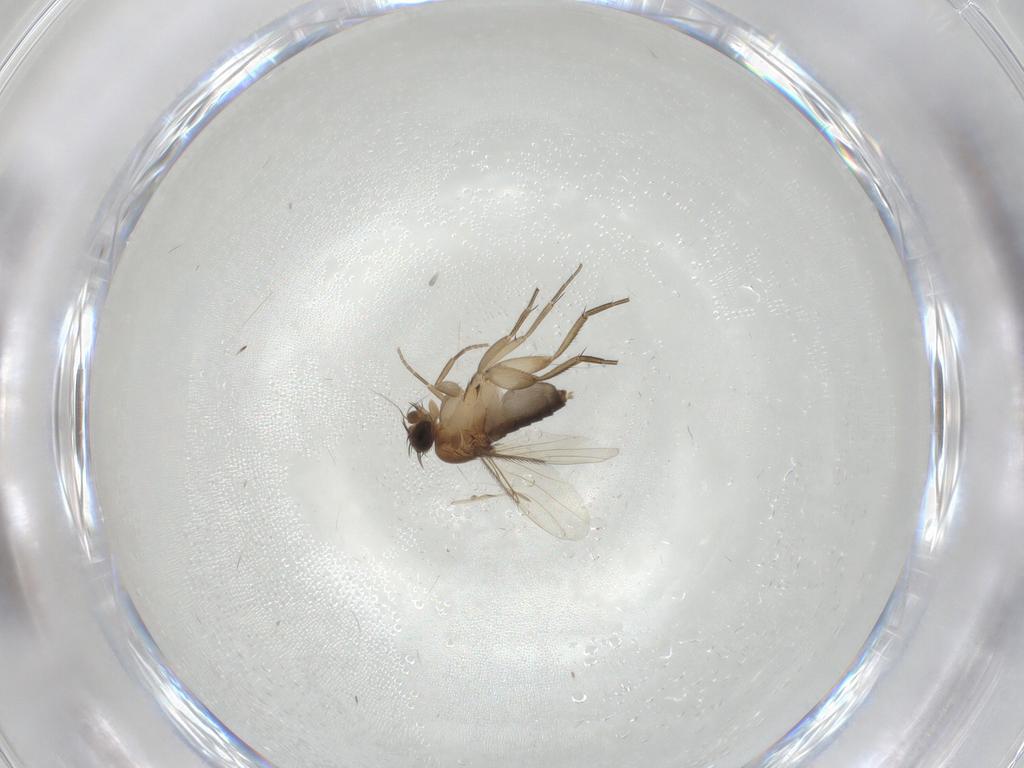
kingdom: Animalia
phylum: Arthropoda
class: Insecta
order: Diptera
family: Phoridae
